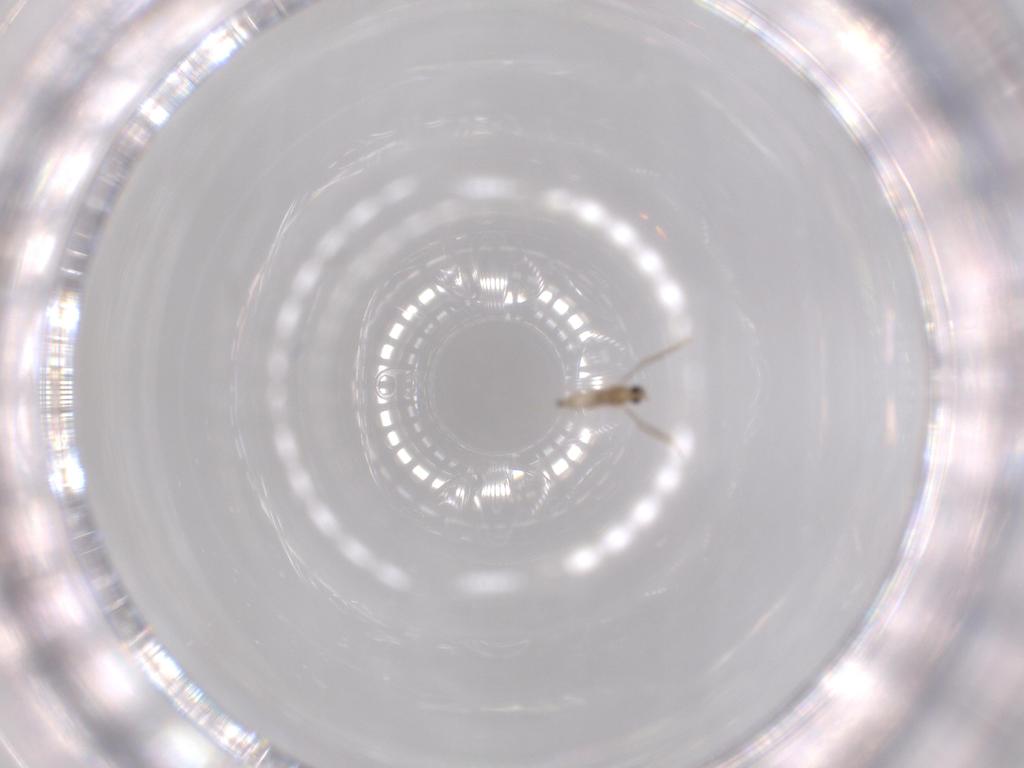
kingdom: Animalia
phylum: Arthropoda
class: Insecta
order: Diptera
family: Cecidomyiidae
